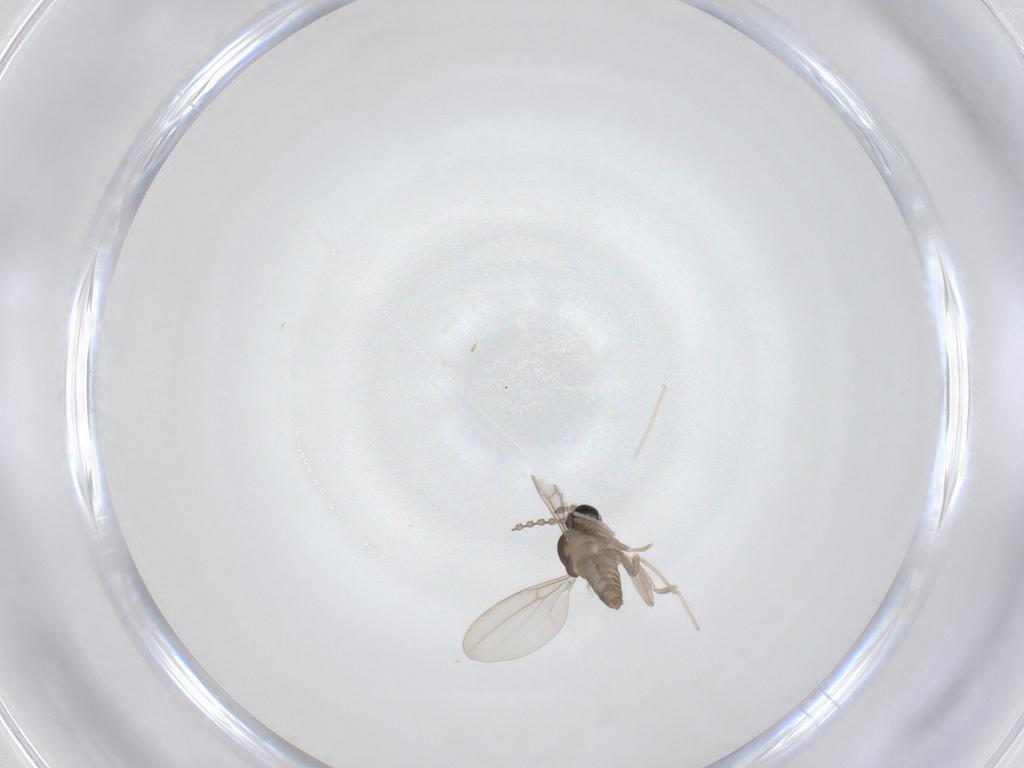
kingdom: Animalia
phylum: Arthropoda
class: Insecta
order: Diptera
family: Cecidomyiidae
